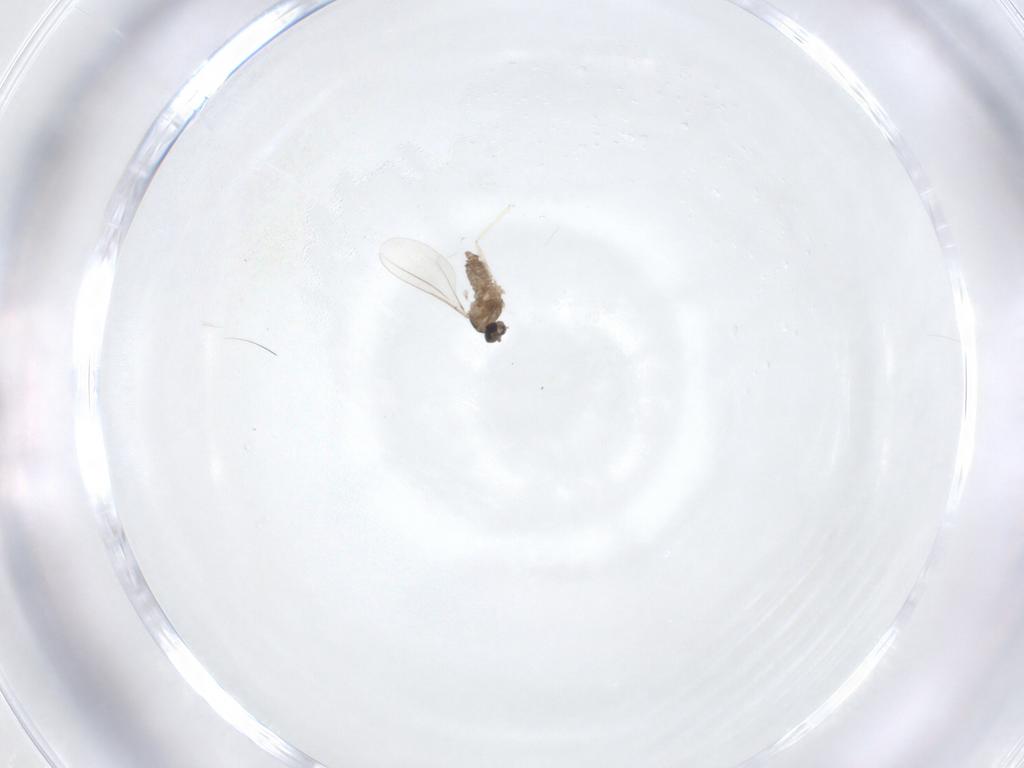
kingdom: Animalia
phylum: Arthropoda
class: Insecta
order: Diptera
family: Cecidomyiidae
